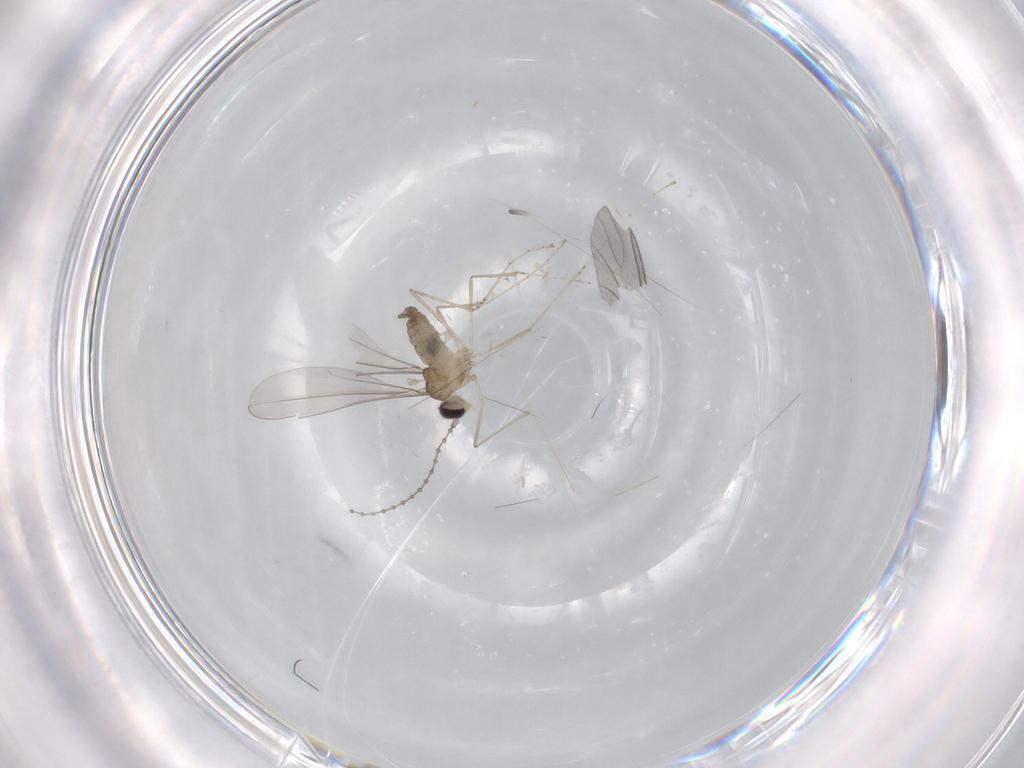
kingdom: Animalia
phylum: Arthropoda
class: Insecta
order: Diptera
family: Cecidomyiidae
